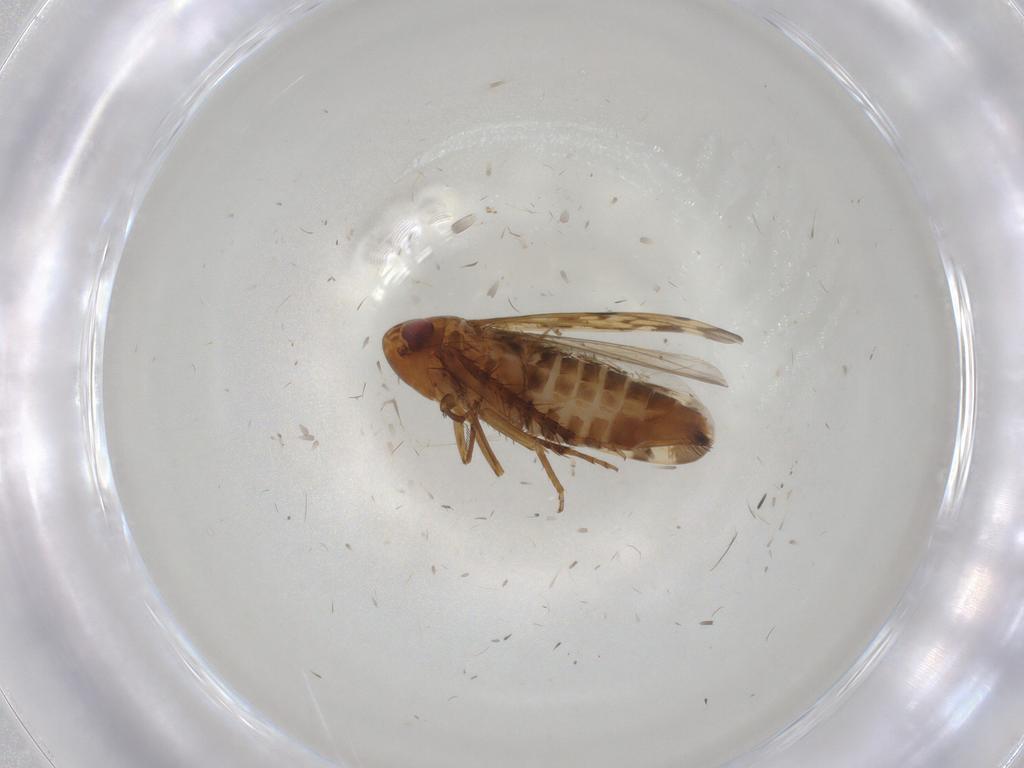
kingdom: Animalia
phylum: Arthropoda
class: Insecta
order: Hemiptera
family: Cicadellidae
